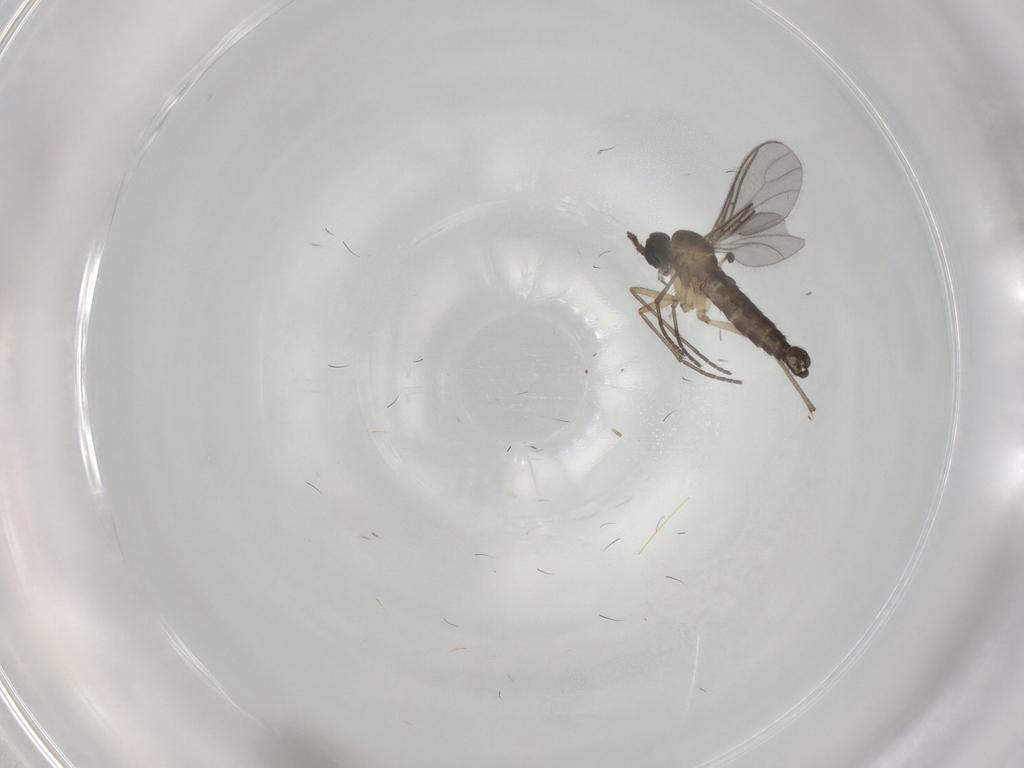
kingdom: Animalia
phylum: Arthropoda
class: Insecta
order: Diptera
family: Sciaridae
